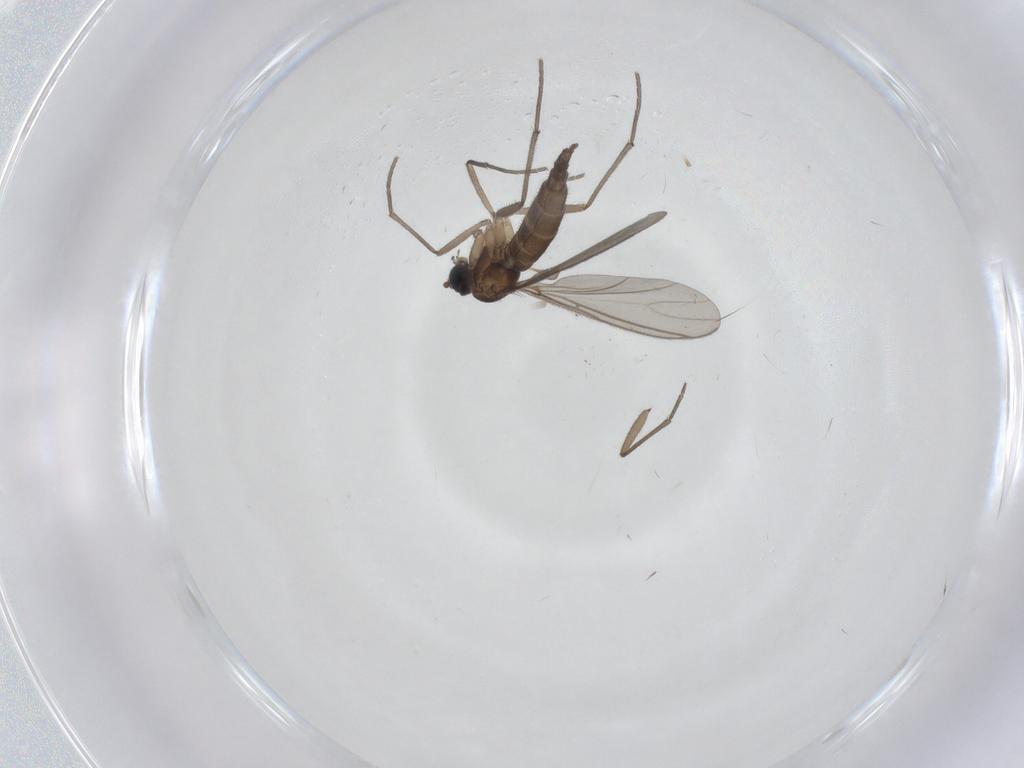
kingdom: Animalia
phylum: Arthropoda
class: Insecta
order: Diptera
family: Sciaridae
